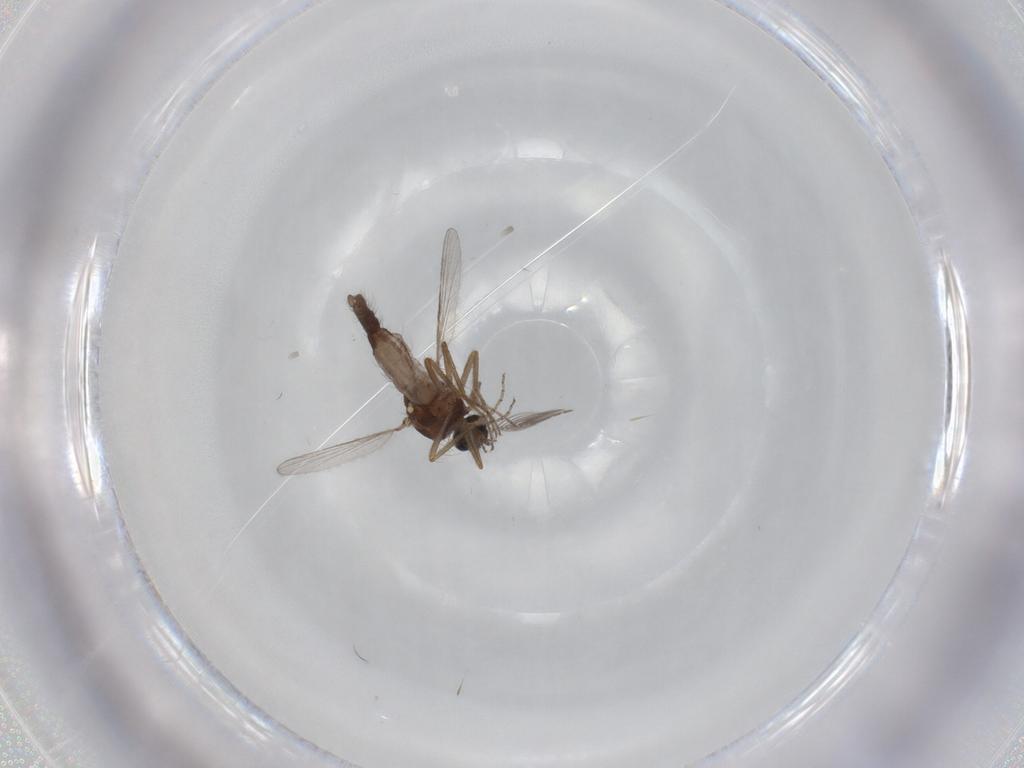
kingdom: Animalia
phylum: Arthropoda
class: Insecta
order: Diptera
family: Ceratopogonidae
